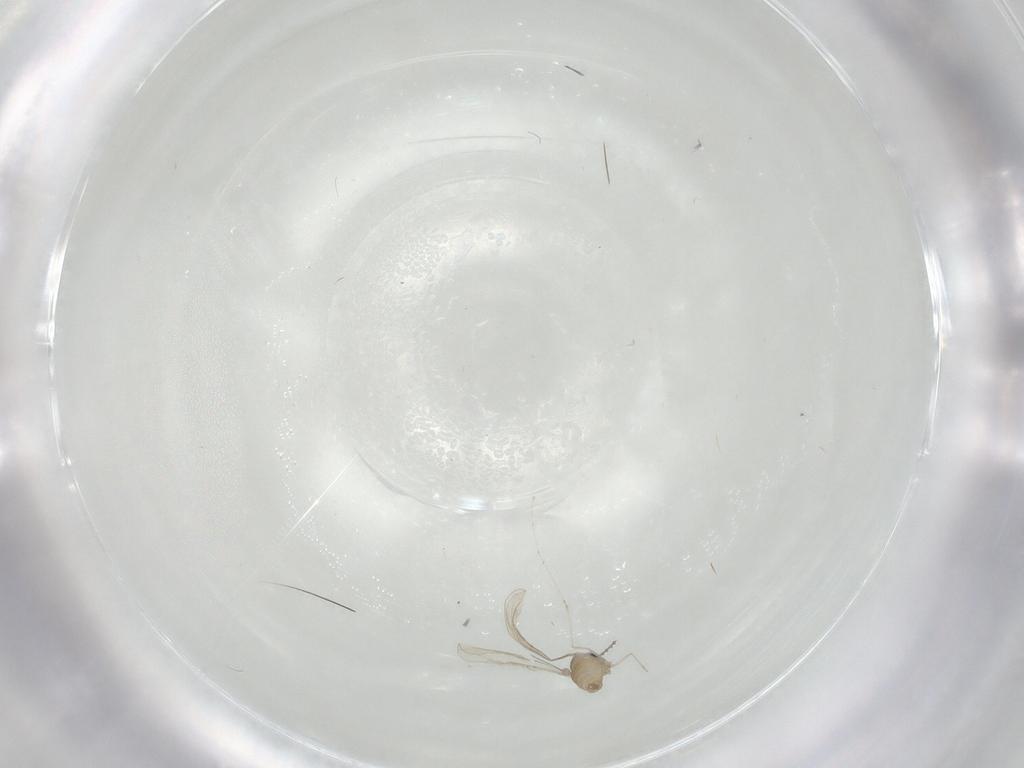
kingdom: Animalia
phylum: Arthropoda
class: Insecta
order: Diptera
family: Cecidomyiidae
